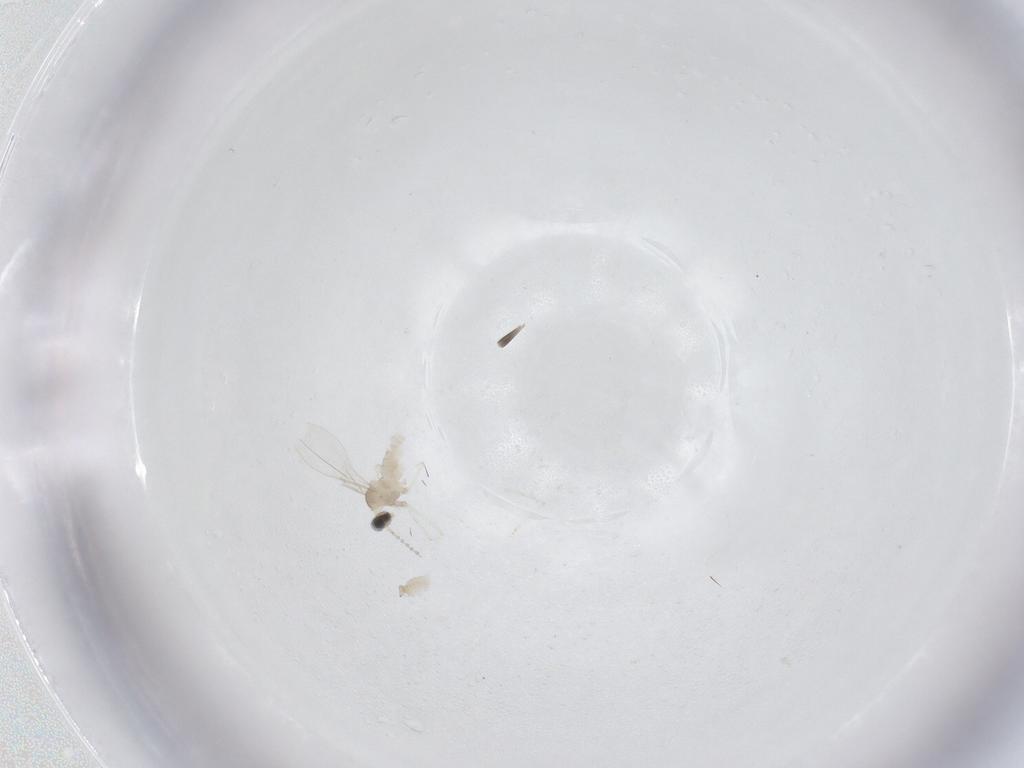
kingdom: Animalia
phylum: Arthropoda
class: Insecta
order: Diptera
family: Cecidomyiidae
